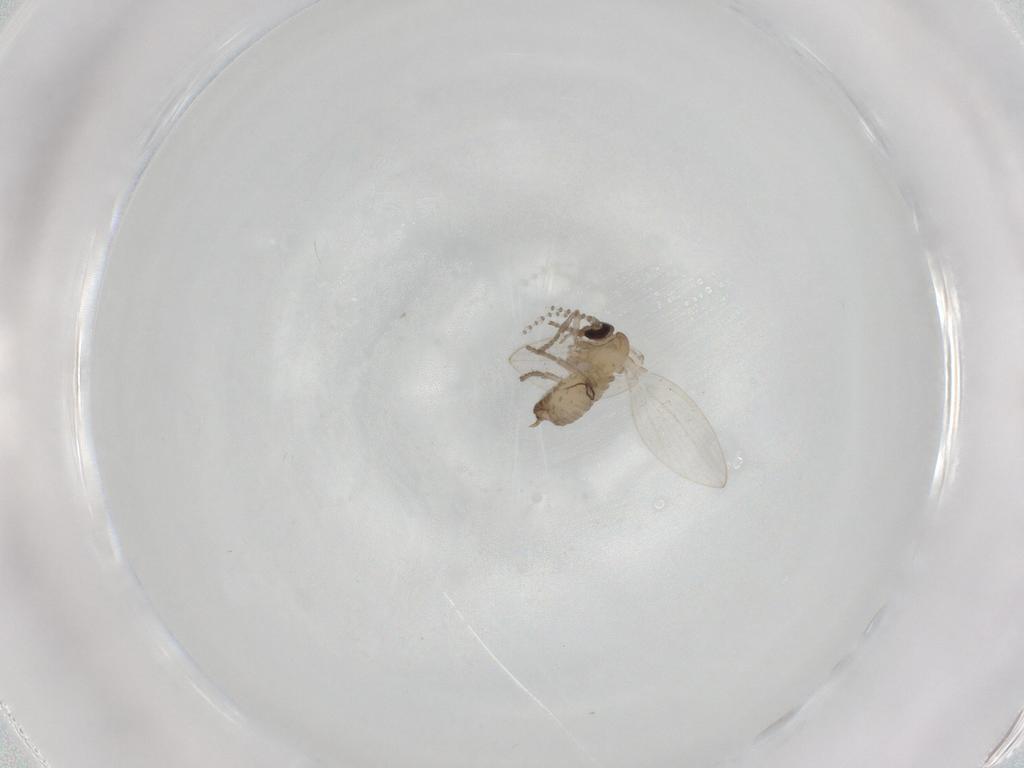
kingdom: Animalia
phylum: Arthropoda
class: Insecta
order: Diptera
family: Psychodidae
